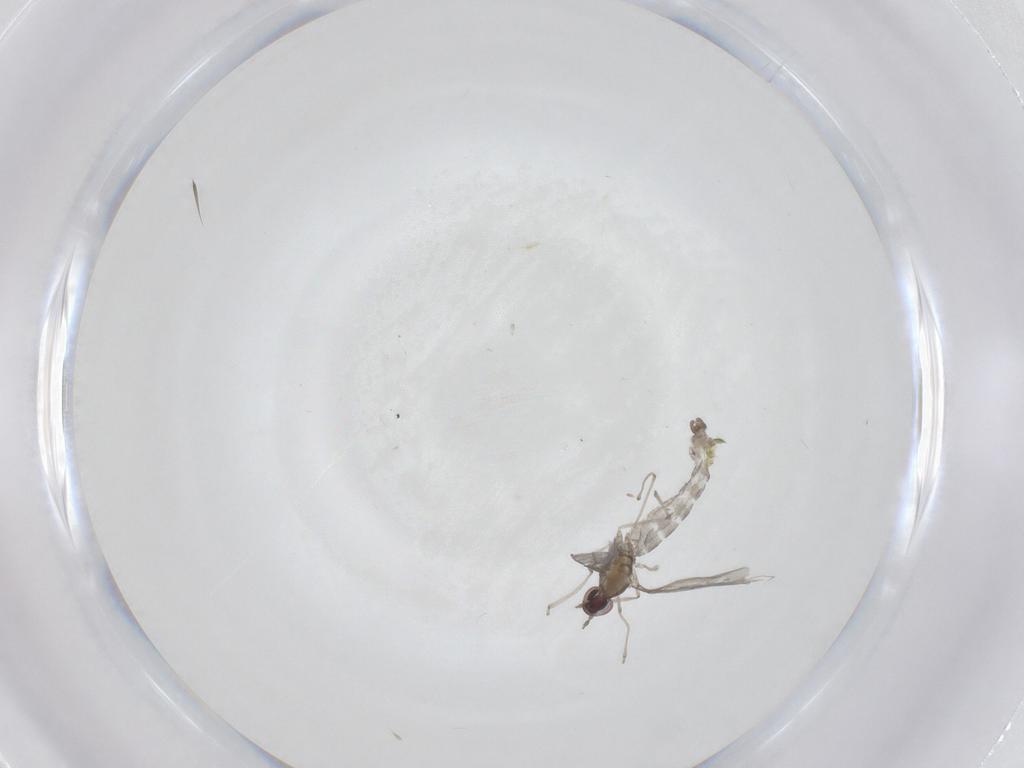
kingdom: Animalia
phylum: Arthropoda
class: Insecta
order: Diptera
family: Cecidomyiidae
